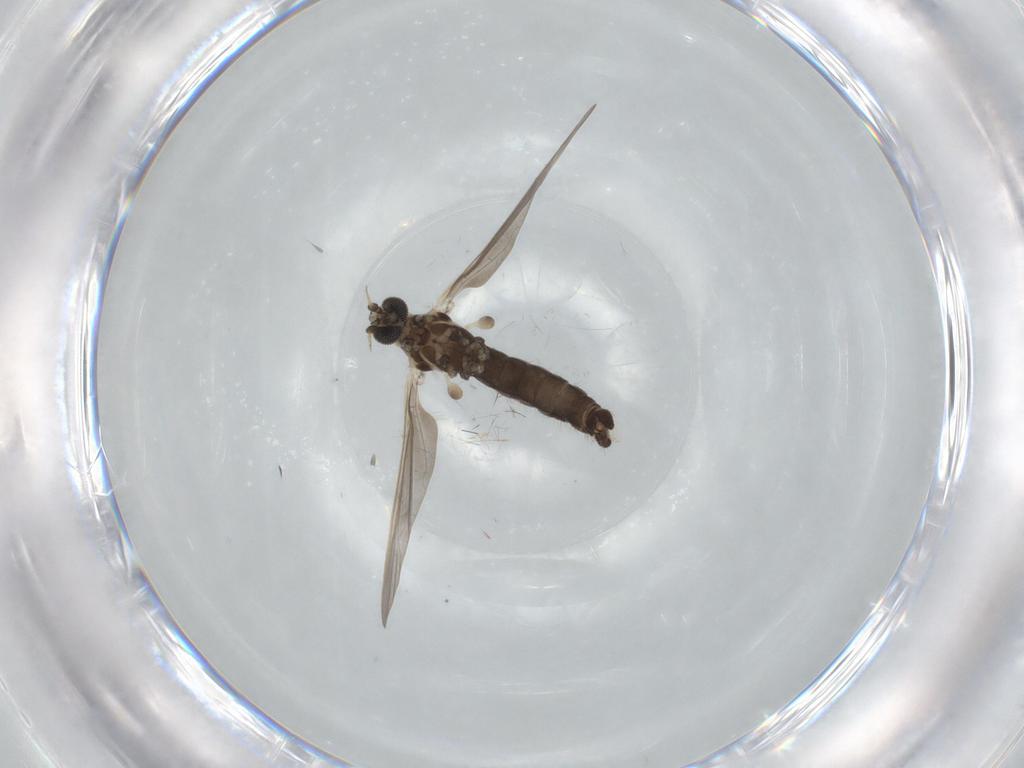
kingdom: Animalia
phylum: Arthropoda
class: Insecta
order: Diptera
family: Limoniidae
